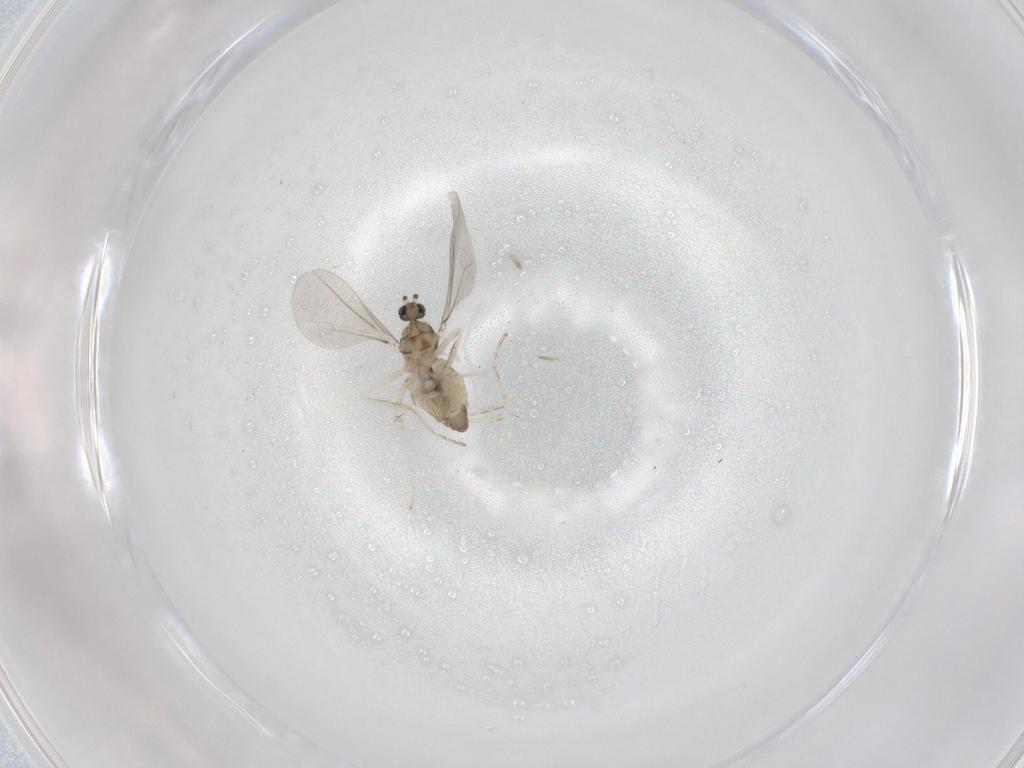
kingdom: Animalia
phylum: Arthropoda
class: Insecta
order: Diptera
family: Cecidomyiidae
